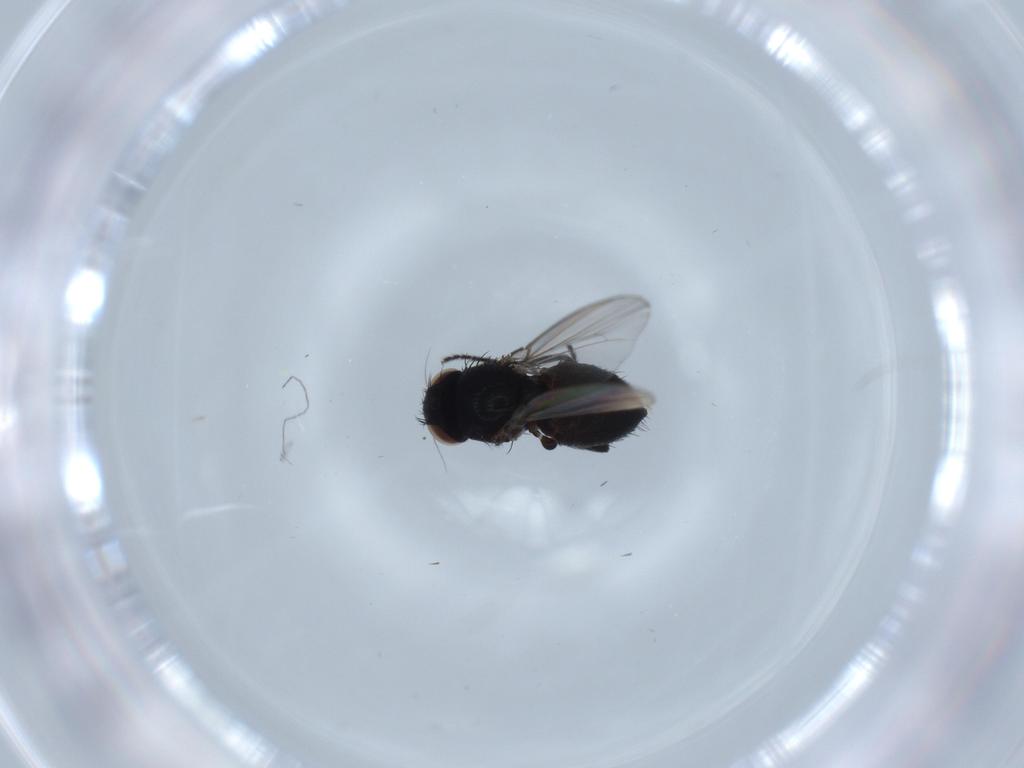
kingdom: Animalia
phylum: Arthropoda
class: Insecta
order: Diptera
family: Milichiidae
